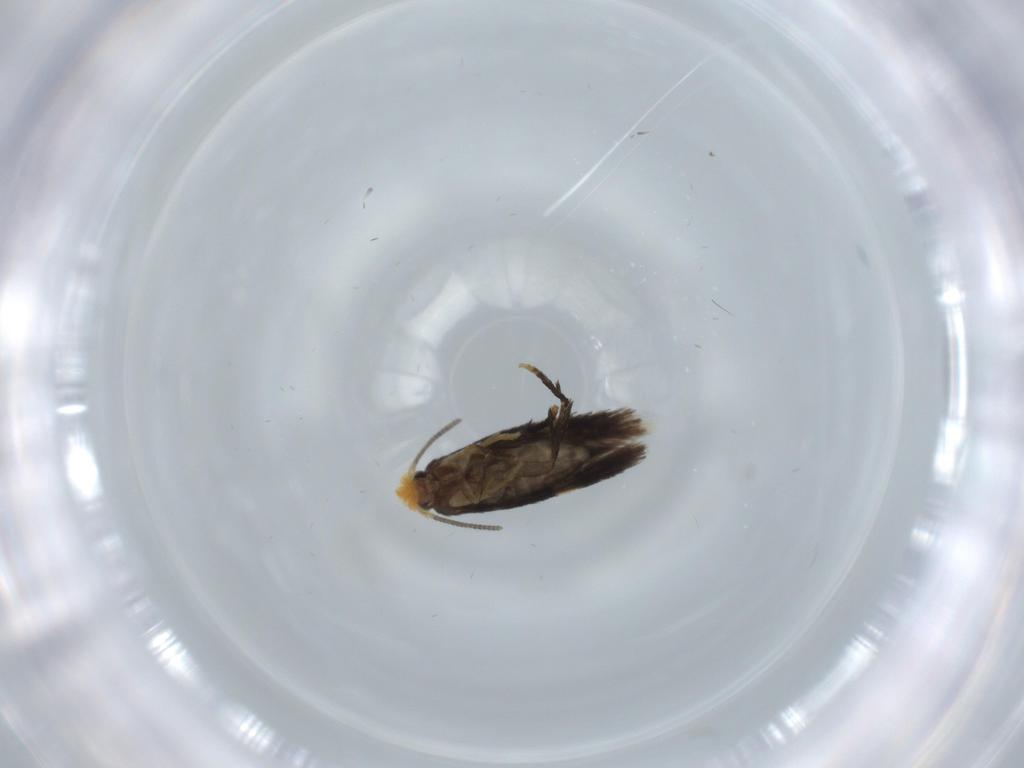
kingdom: Animalia
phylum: Arthropoda
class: Insecta
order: Lepidoptera
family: Nepticulidae
